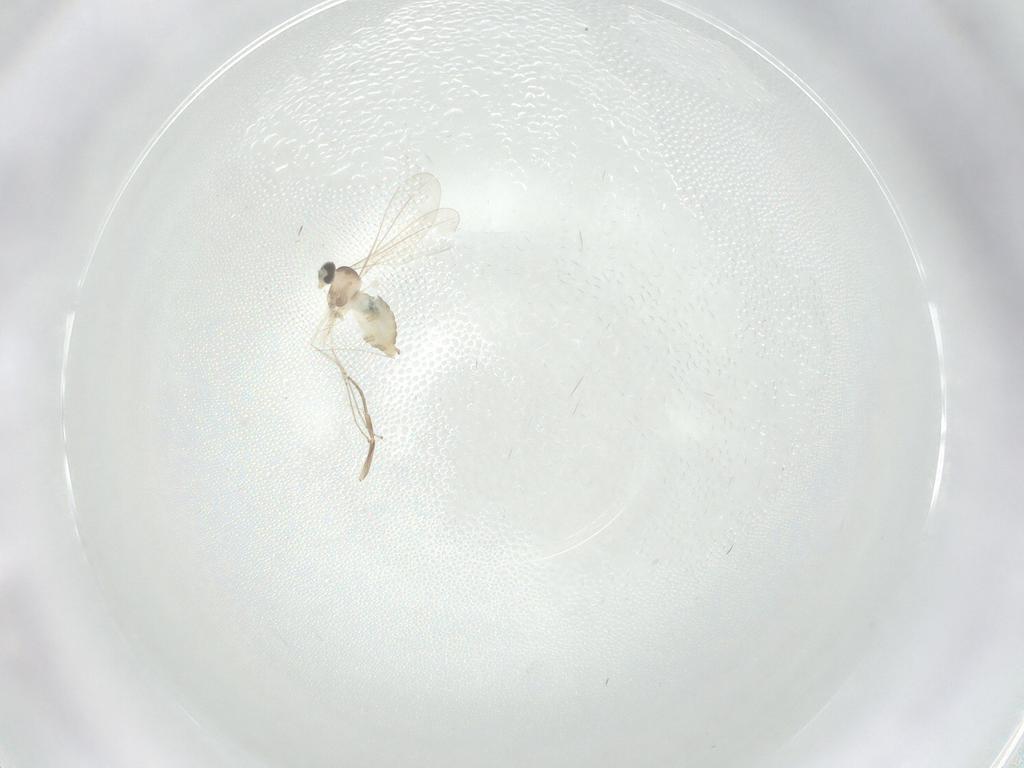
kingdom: Animalia
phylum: Arthropoda
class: Insecta
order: Diptera
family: Cecidomyiidae
